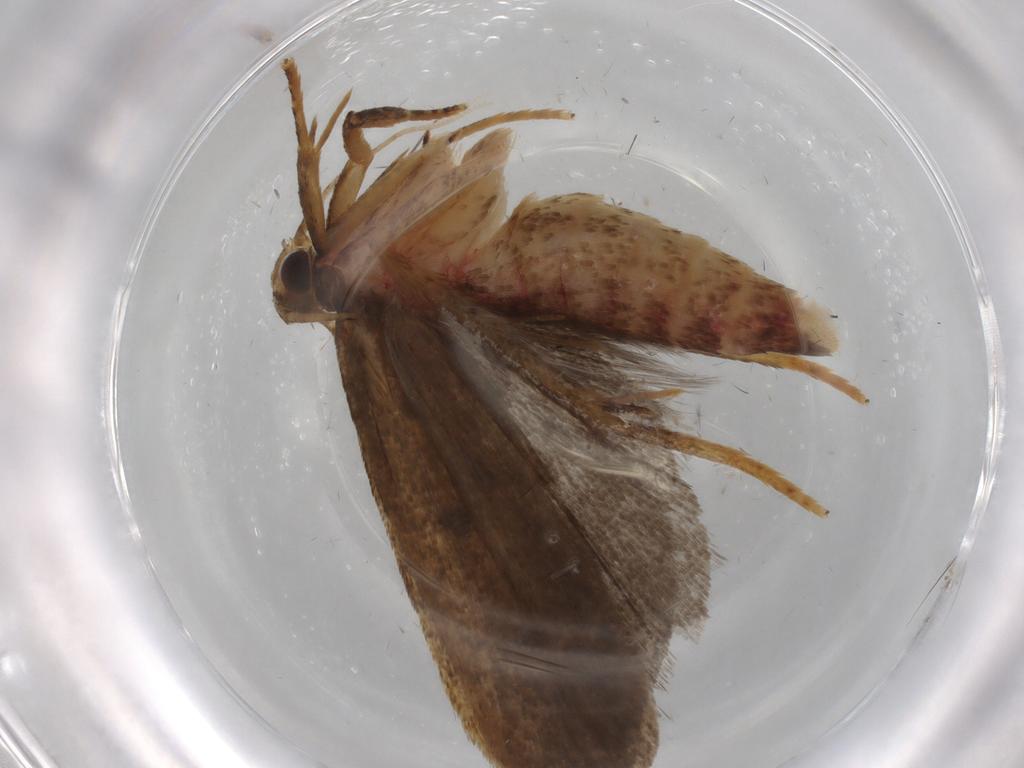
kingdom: Animalia
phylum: Arthropoda
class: Insecta
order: Lepidoptera
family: Autostichidae
